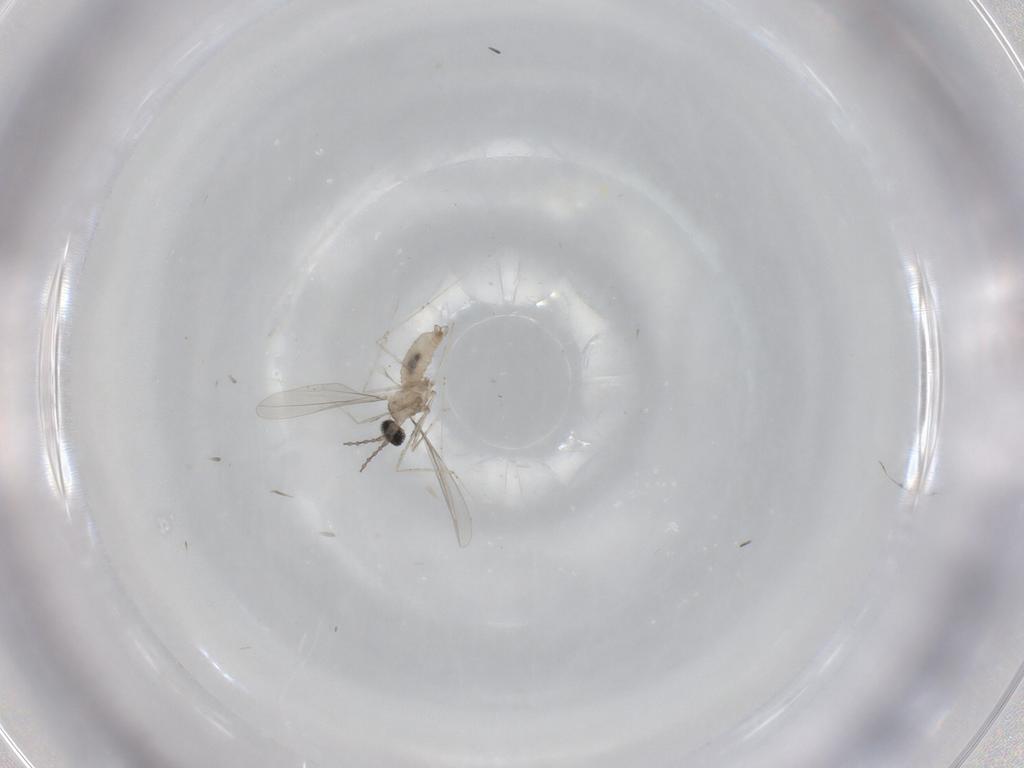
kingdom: Animalia
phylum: Arthropoda
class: Insecta
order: Diptera
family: Cecidomyiidae
